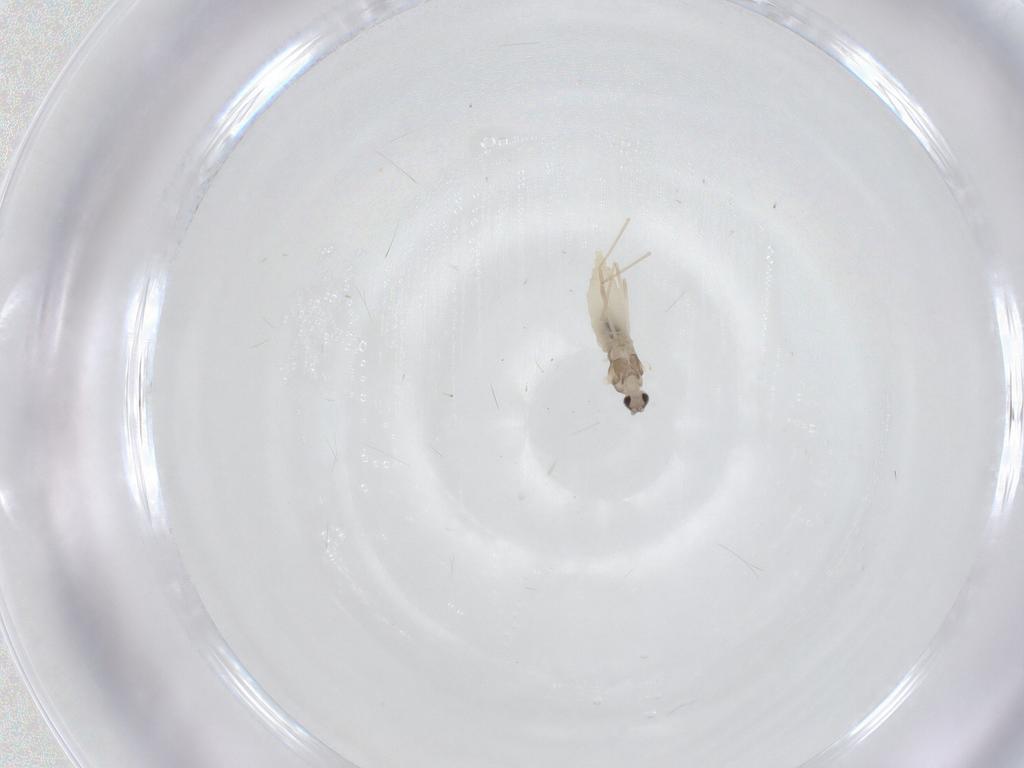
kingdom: Animalia
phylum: Arthropoda
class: Insecta
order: Diptera
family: Cecidomyiidae
